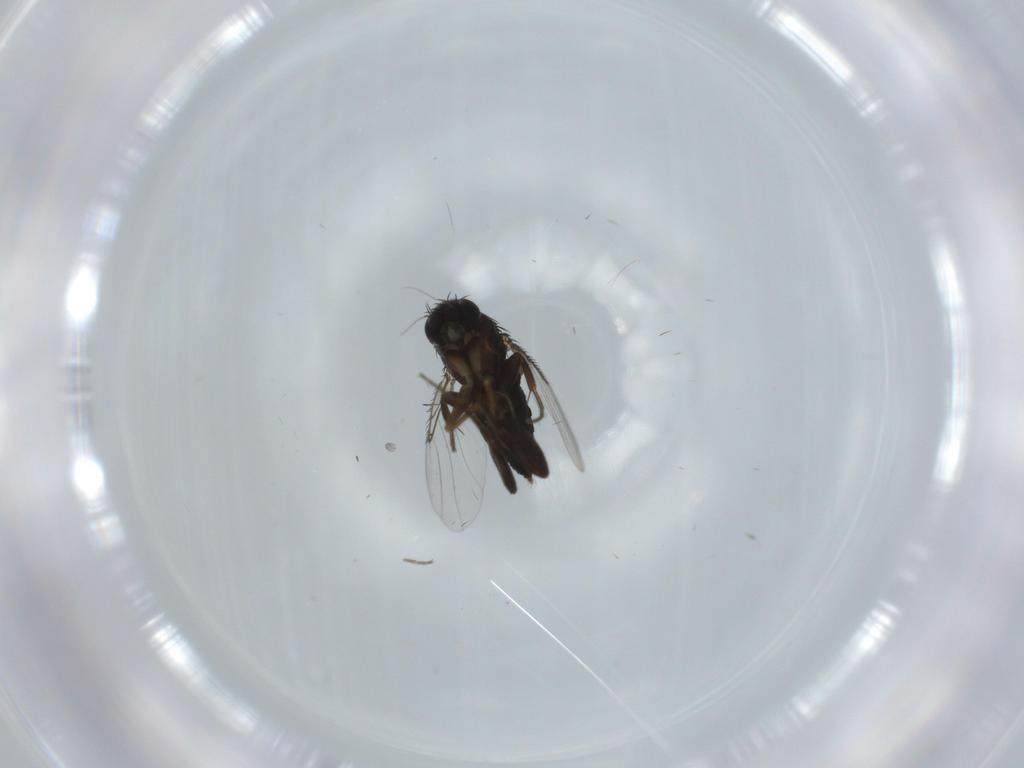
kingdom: Animalia
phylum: Arthropoda
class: Insecta
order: Diptera
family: Phoridae
